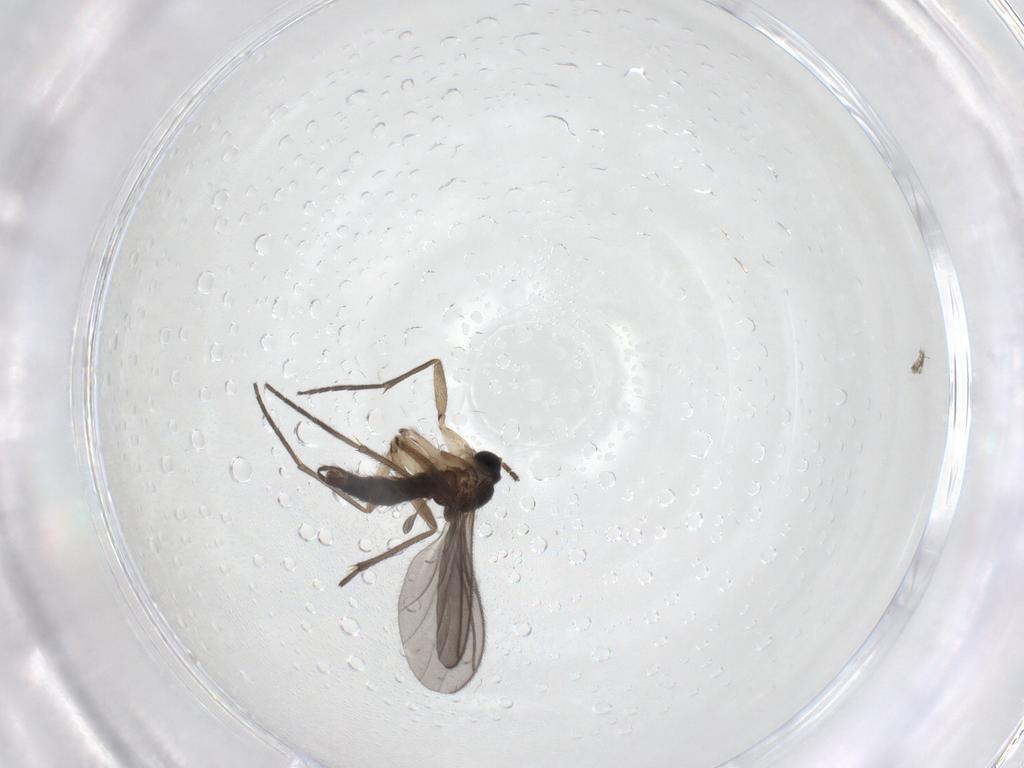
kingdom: Animalia
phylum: Arthropoda
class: Insecta
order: Diptera
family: Sciaridae
